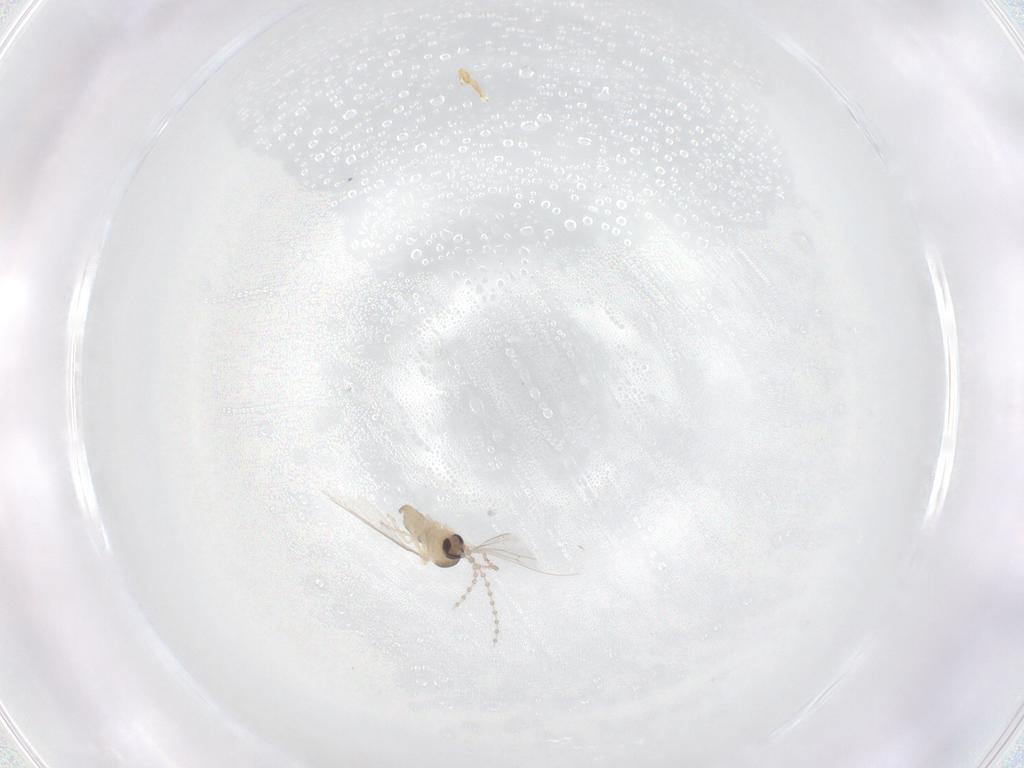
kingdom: Animalia
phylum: Arthropoda
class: Insecta
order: Diptera
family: Cecidomyiidae
